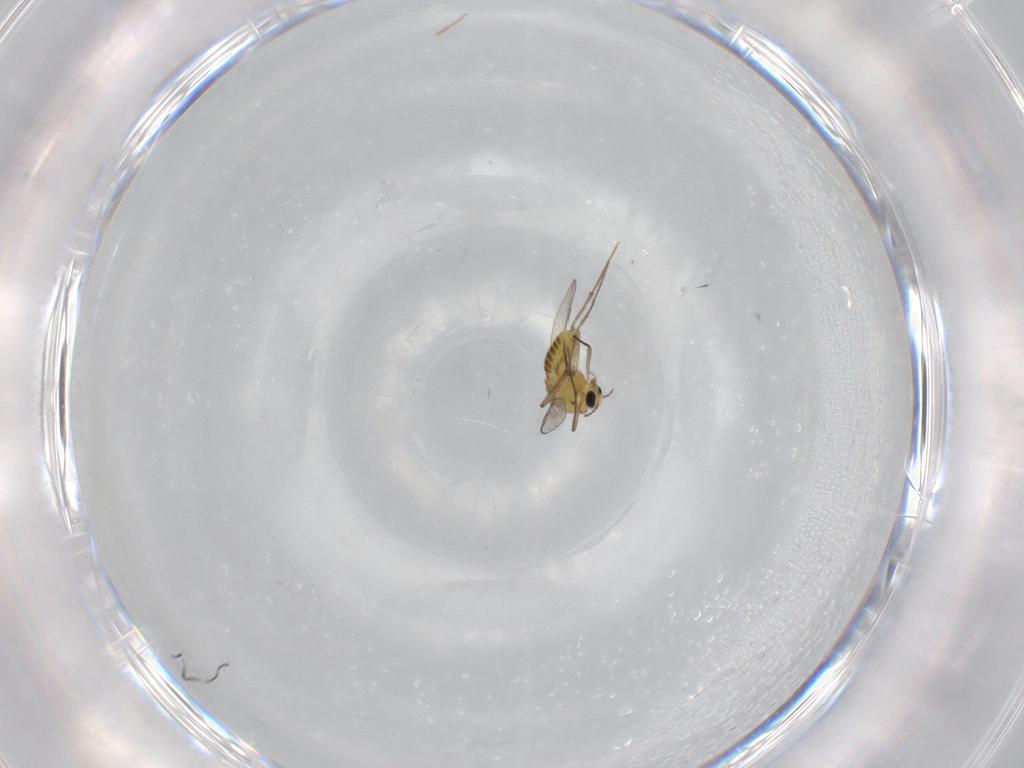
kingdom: Animalia
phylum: Arthropoda
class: Insecta
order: Diptera
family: Chironomidae
